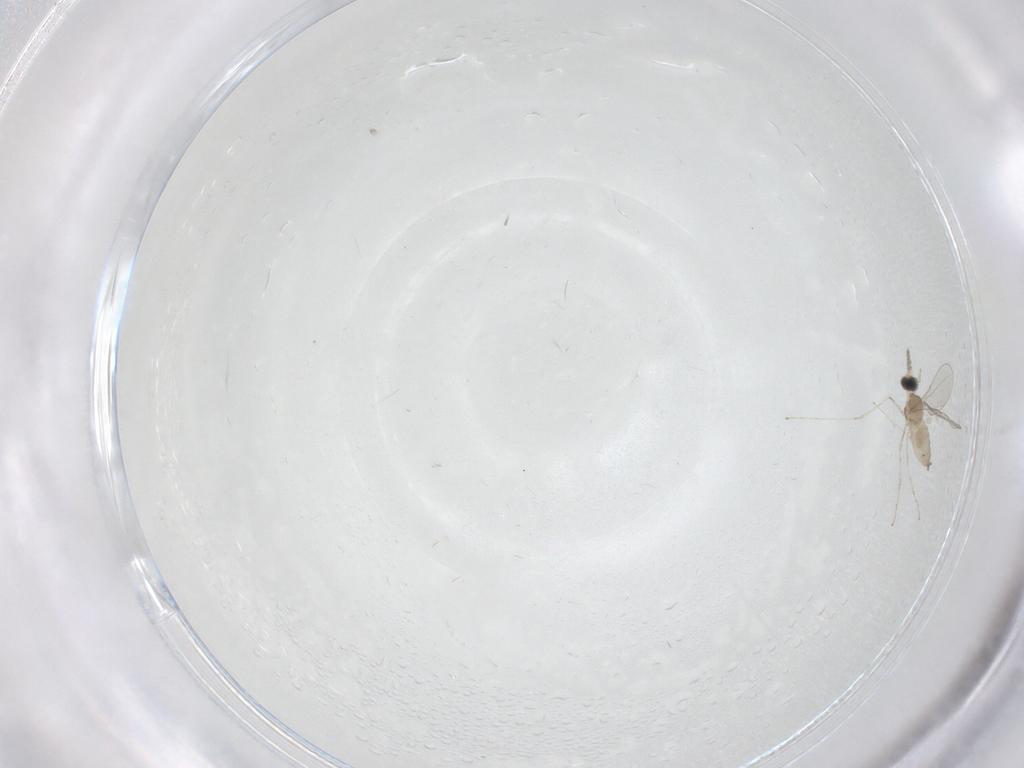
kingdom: Animalia
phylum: Arthropoda
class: Insecta
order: Diptera
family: Cecidomyiidae
